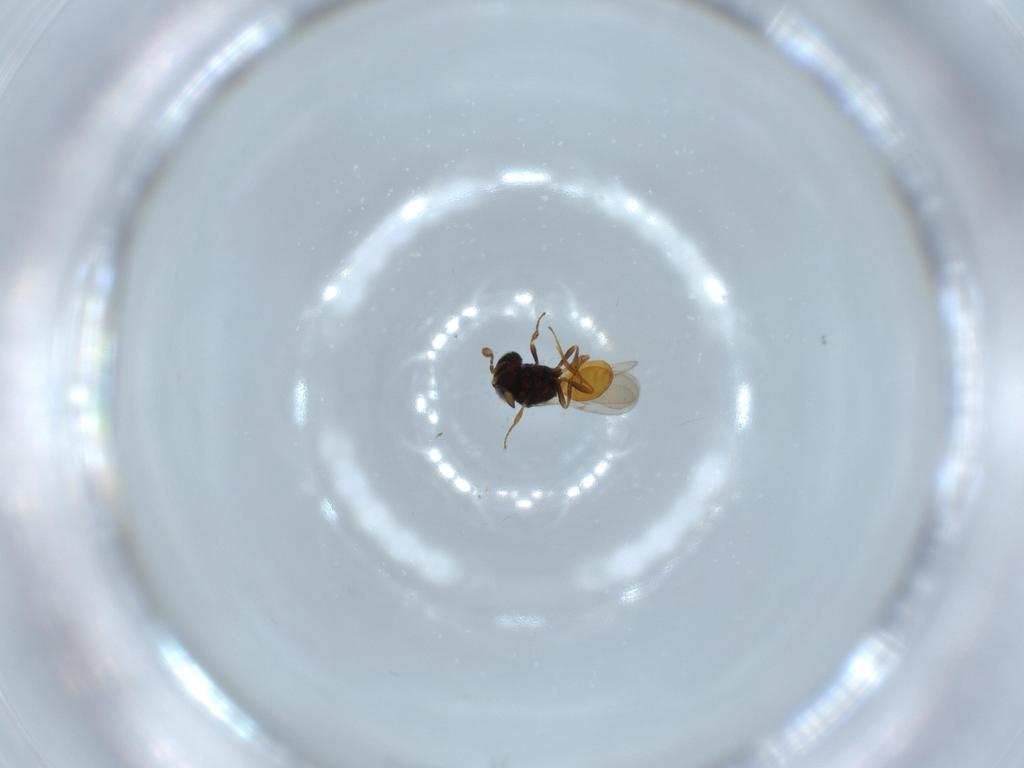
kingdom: Animalia
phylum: Arthropoda
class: Insecta
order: Hymenoptera
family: Scelionidae
